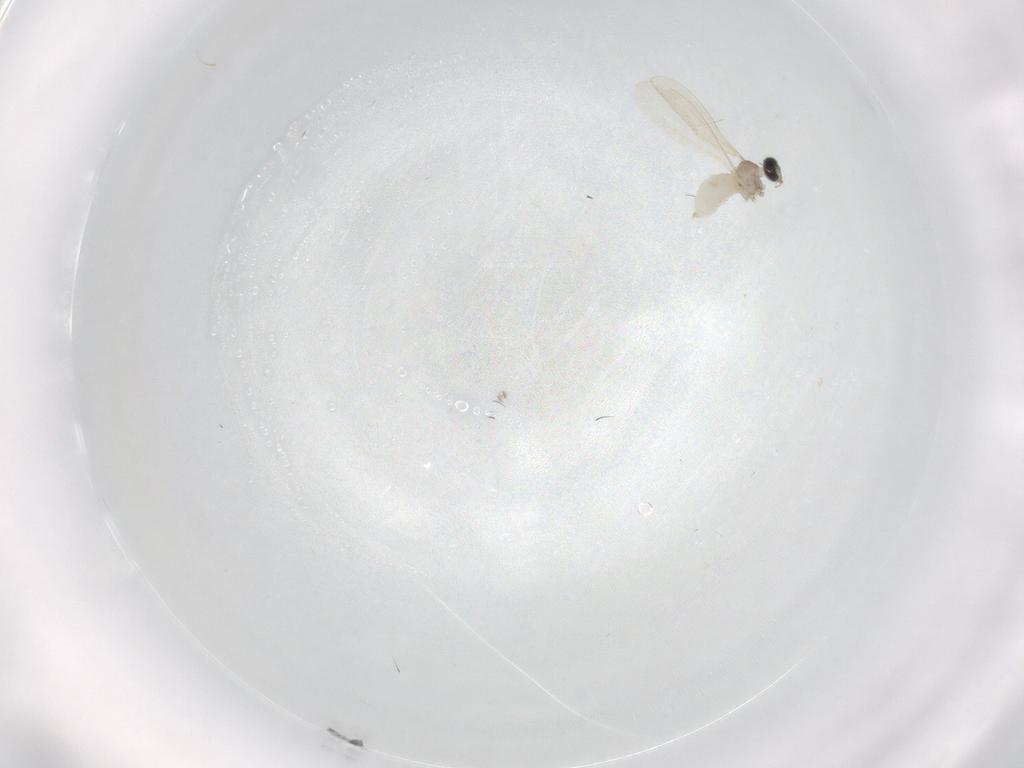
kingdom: Animalia
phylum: Arthropoda
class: Insecta
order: Diptera
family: Cecidomyiidae
